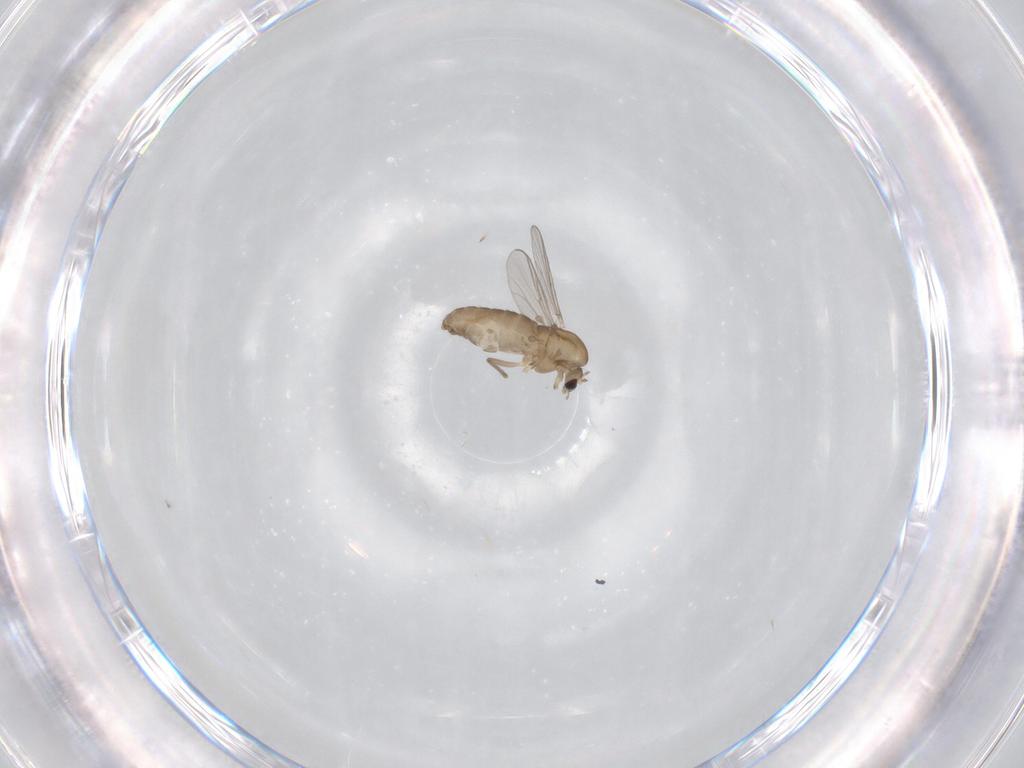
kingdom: Animalia
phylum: Arthropoda
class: Insecta
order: Diptera
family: Chironomidae
